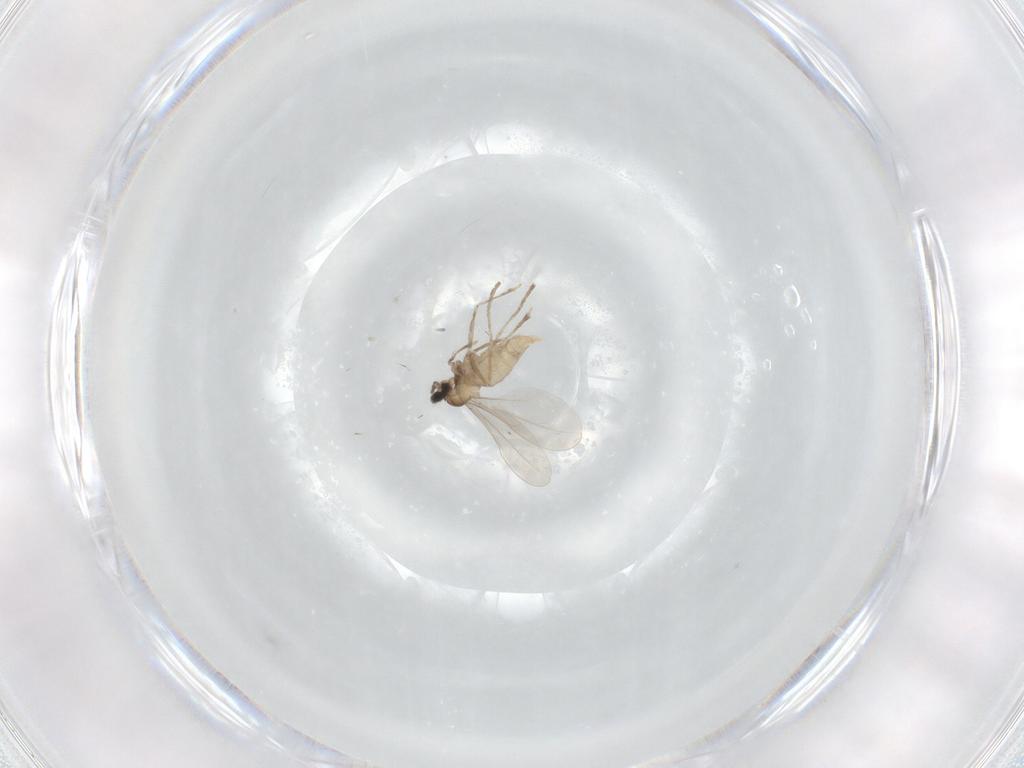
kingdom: Animalia
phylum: Arthropoda
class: Insecta
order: Diptera
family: Cecidomyiidae
